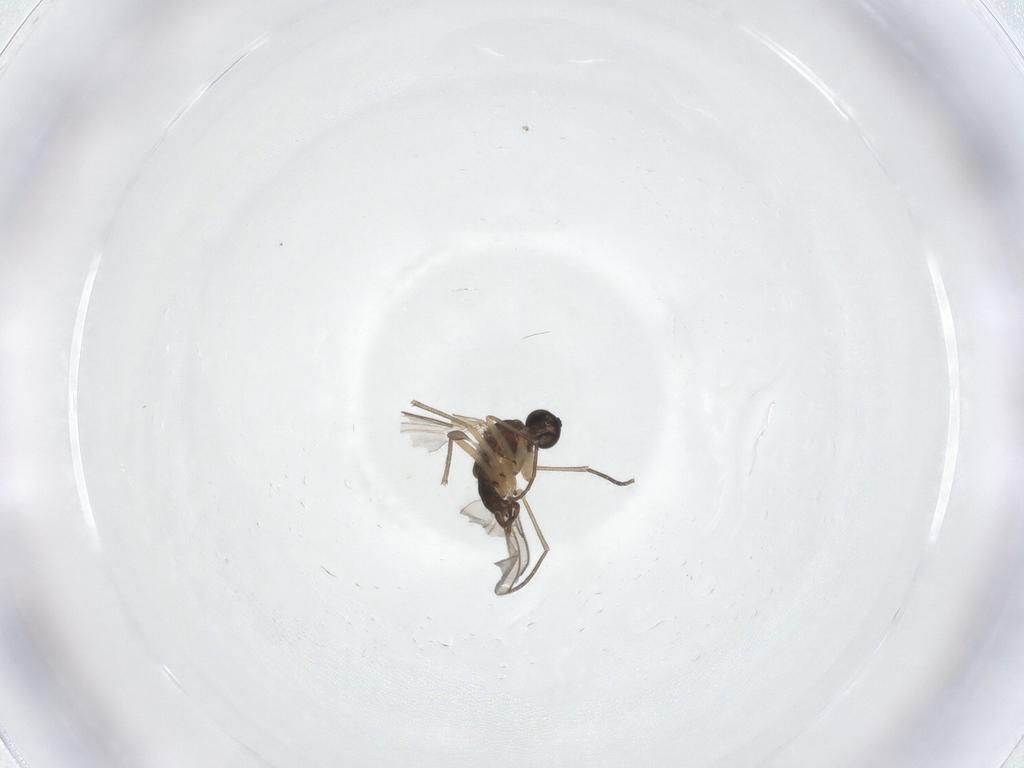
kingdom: Animalia
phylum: Arthropoda
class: Insecta
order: Diptera
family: Sciaridae
